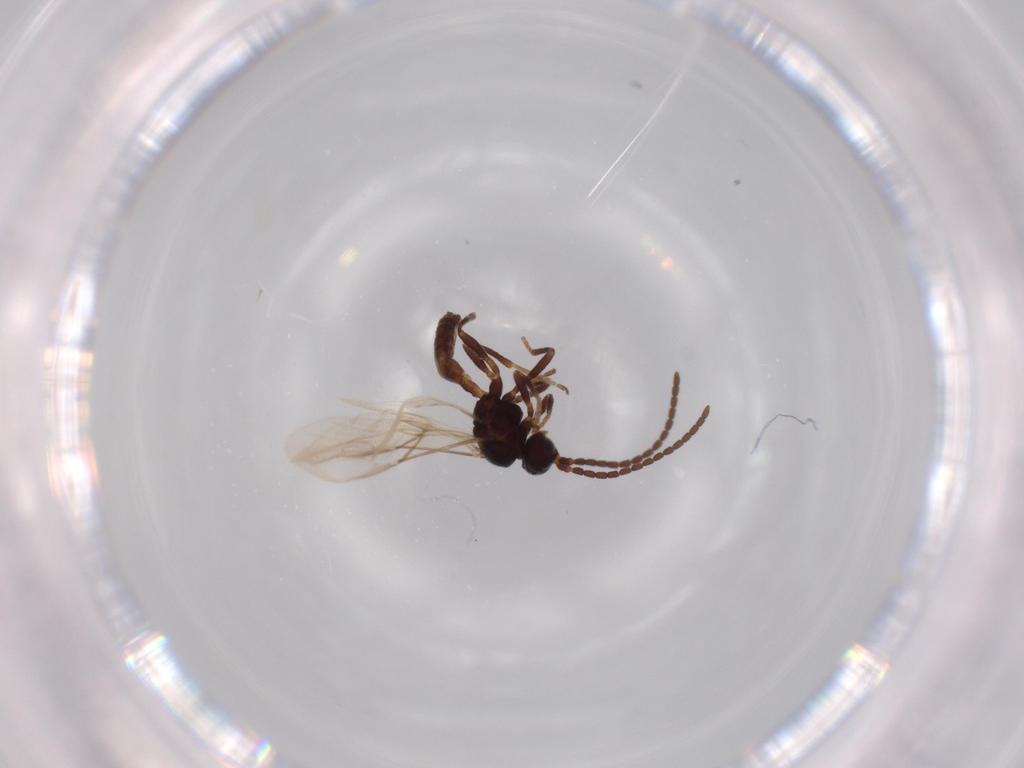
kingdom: Animalia
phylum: Arthropoda
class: Insecta
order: Hymenoptera
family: Braconidae
